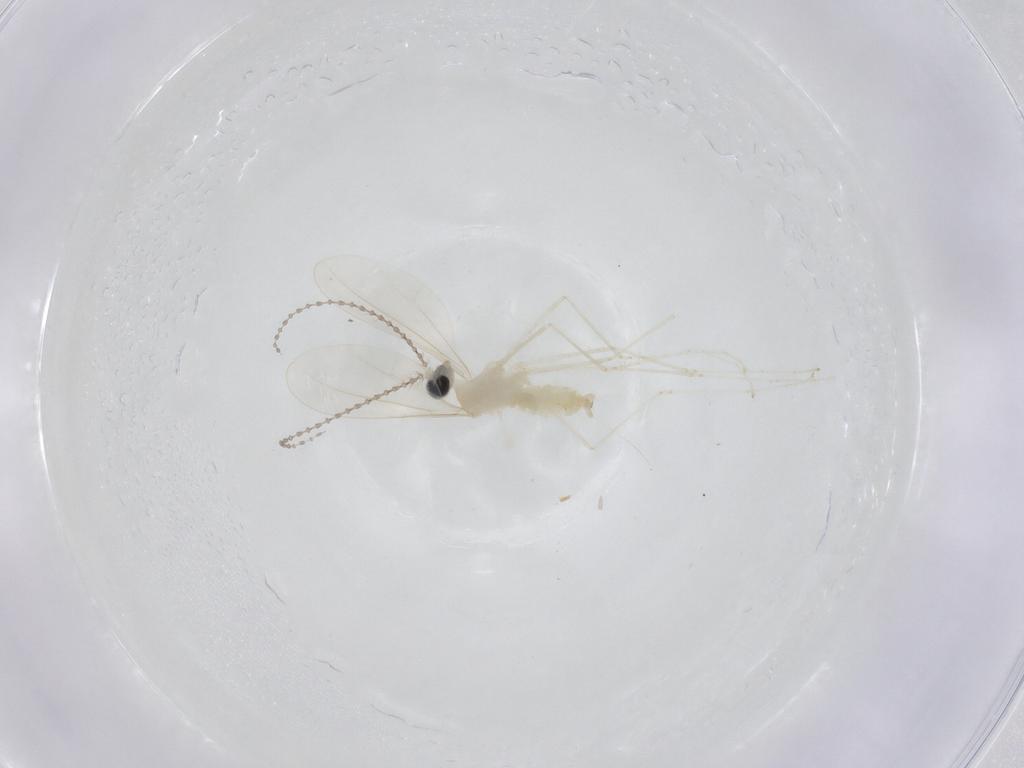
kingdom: Animalia
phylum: Arthropoda
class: Insecta
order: Diptera
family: Cecidomyiidae
